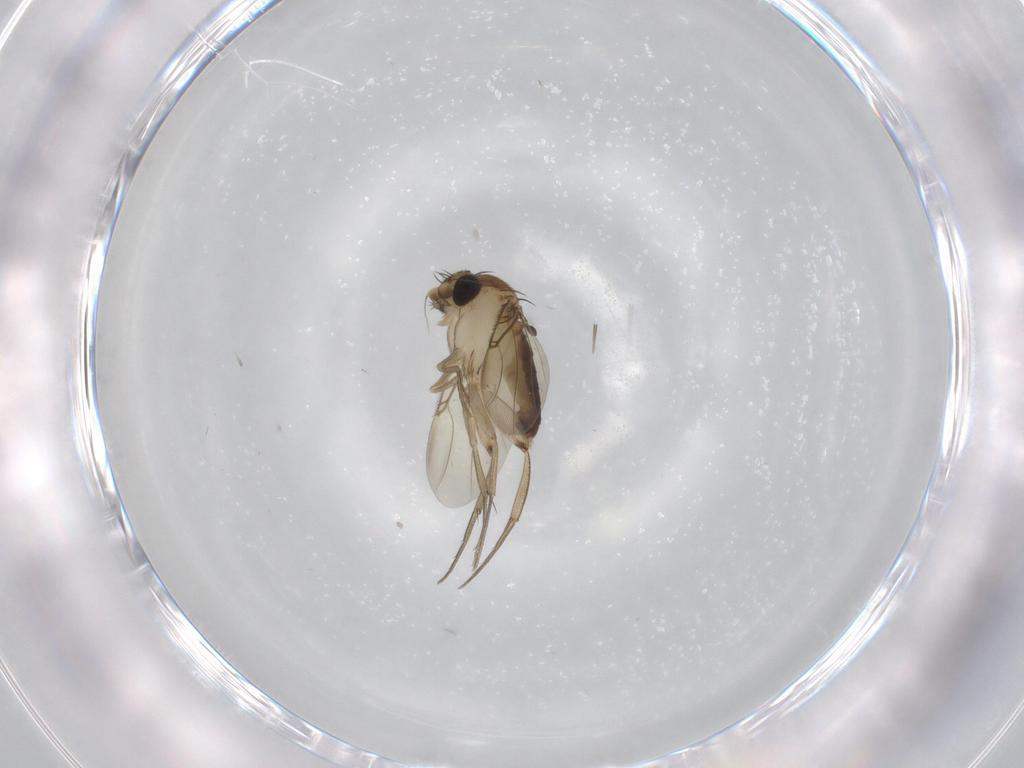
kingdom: Animalia
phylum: Arthropoda
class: Insecta
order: Diptera
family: Phoridae
